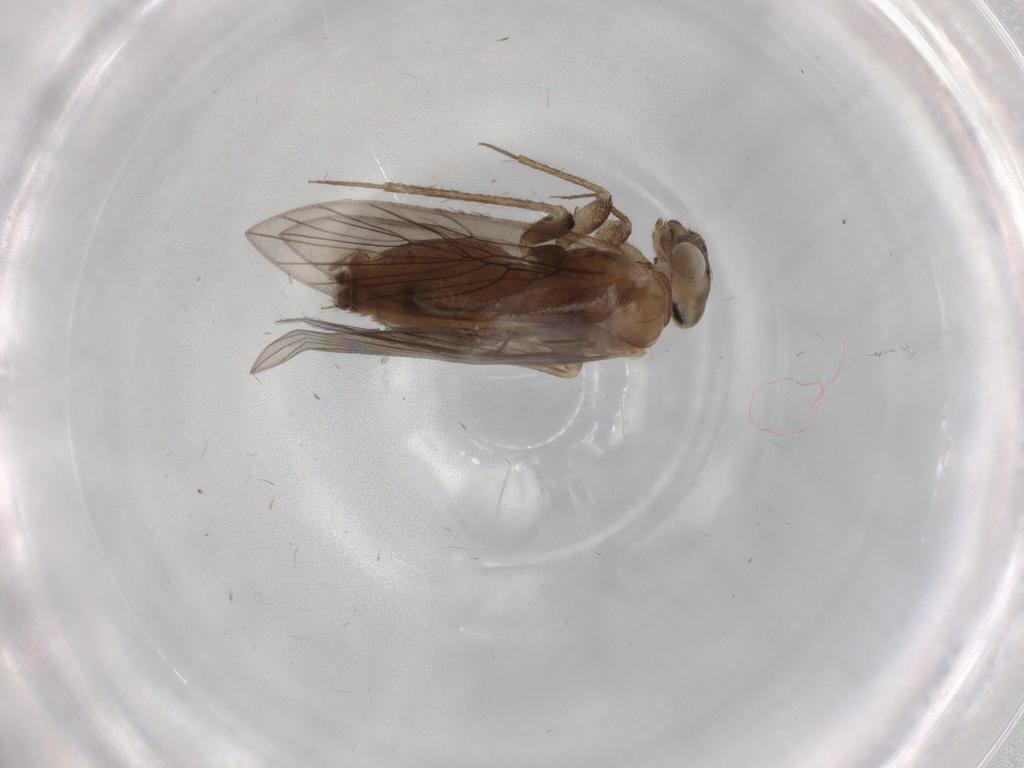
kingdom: Animalia
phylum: Arthropoda
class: Insecta
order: Psocodea
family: Lepidopsocidae
